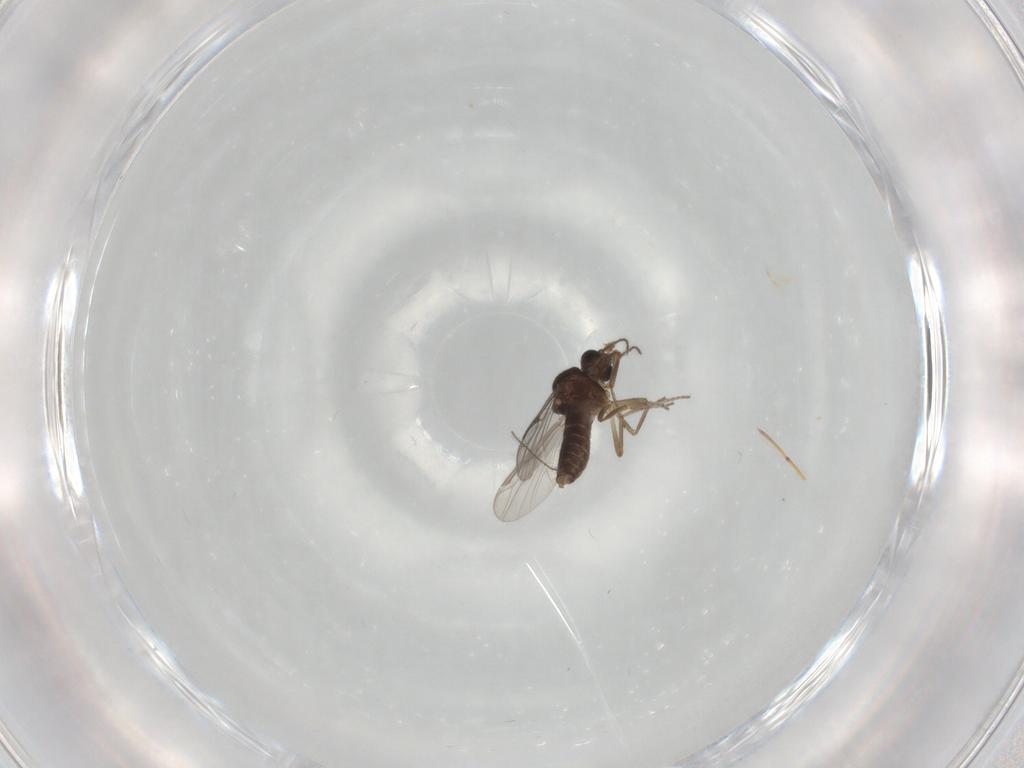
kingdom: Animalia
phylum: Arthropoda
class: Insecta
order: Diptera
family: Ceratopogonidae
